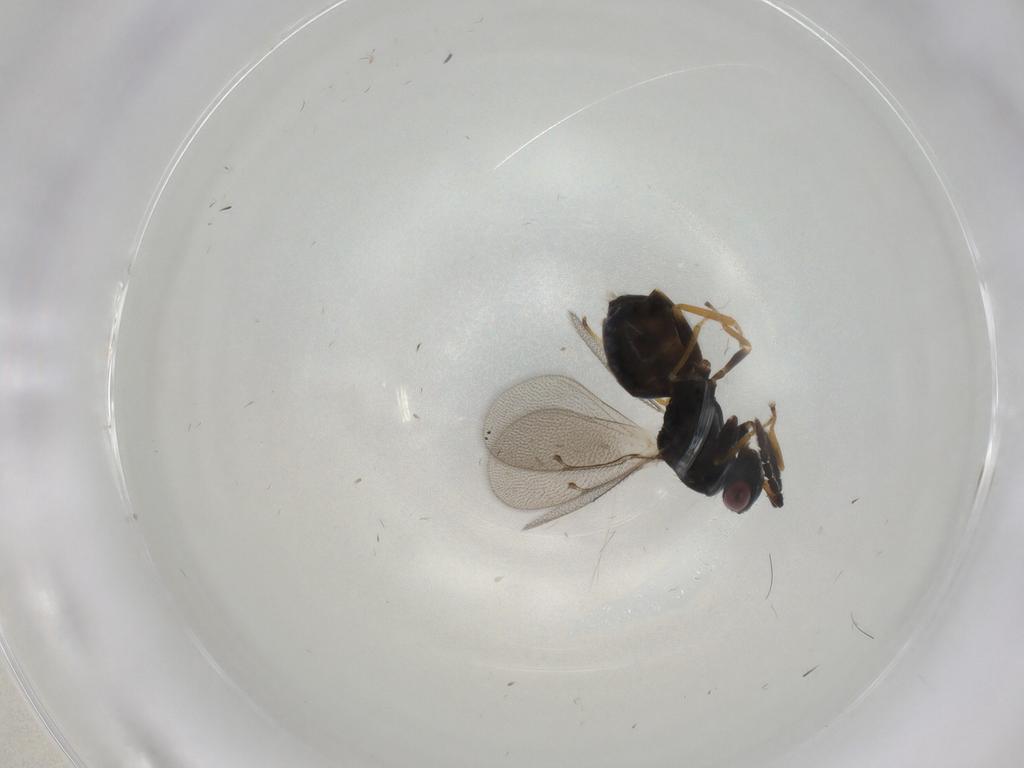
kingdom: Animalia
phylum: Arthropoda
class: Insecta
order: Hymenoptera
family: Eulophidae
